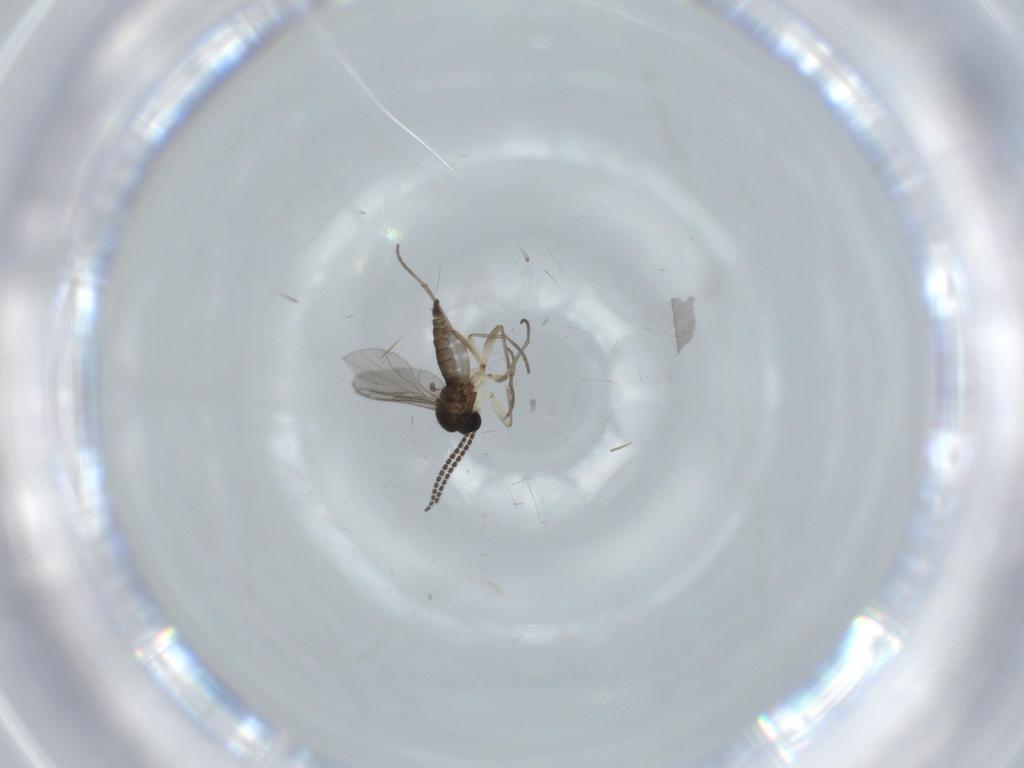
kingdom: Animalia
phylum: Arthropoda
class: Insecta
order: Diptera
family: Sciaridae
